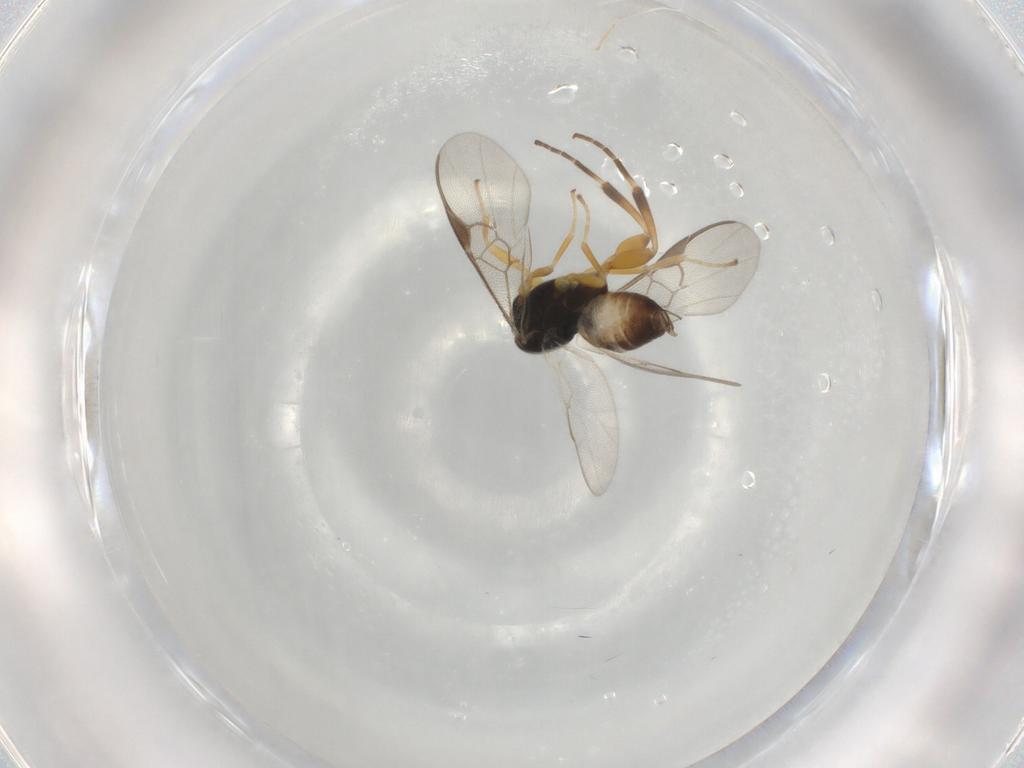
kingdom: Animalia
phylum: Arthropoda
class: Insecta
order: Hymenoptera
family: Braconidae
